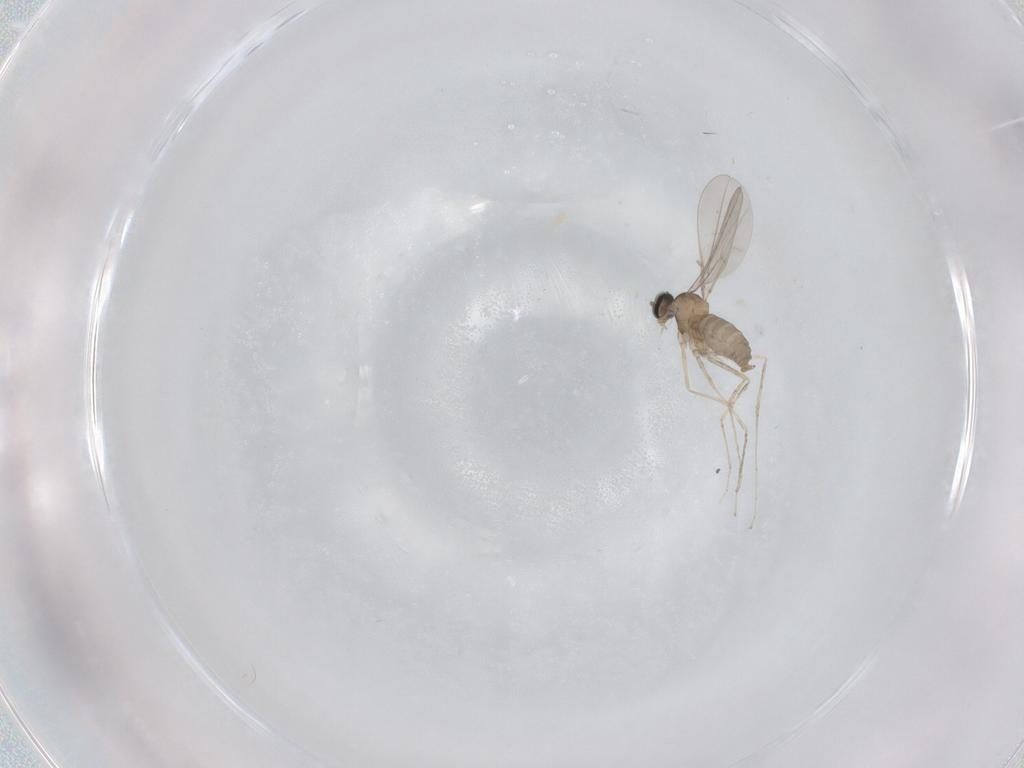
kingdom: Animalia
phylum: Arthropoda
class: Insecta
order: Diptera
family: Cecidomyiidae
